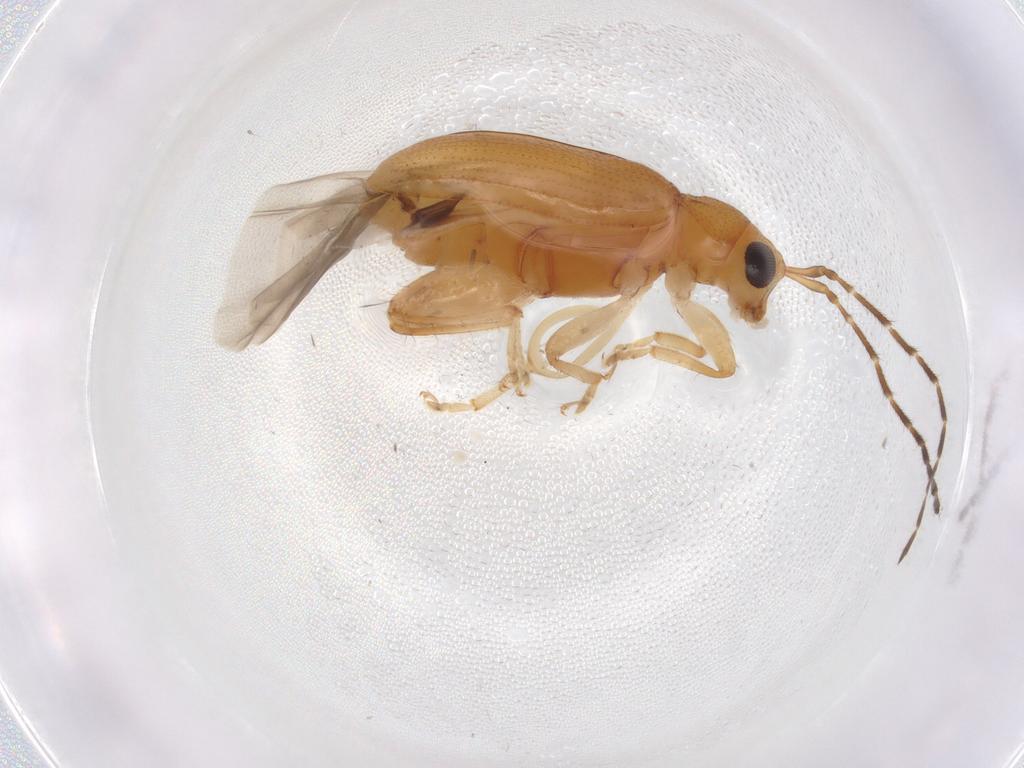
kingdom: Animalia
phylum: Arthropoda
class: Insecta
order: Coleoptera
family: Chrysomelidae
